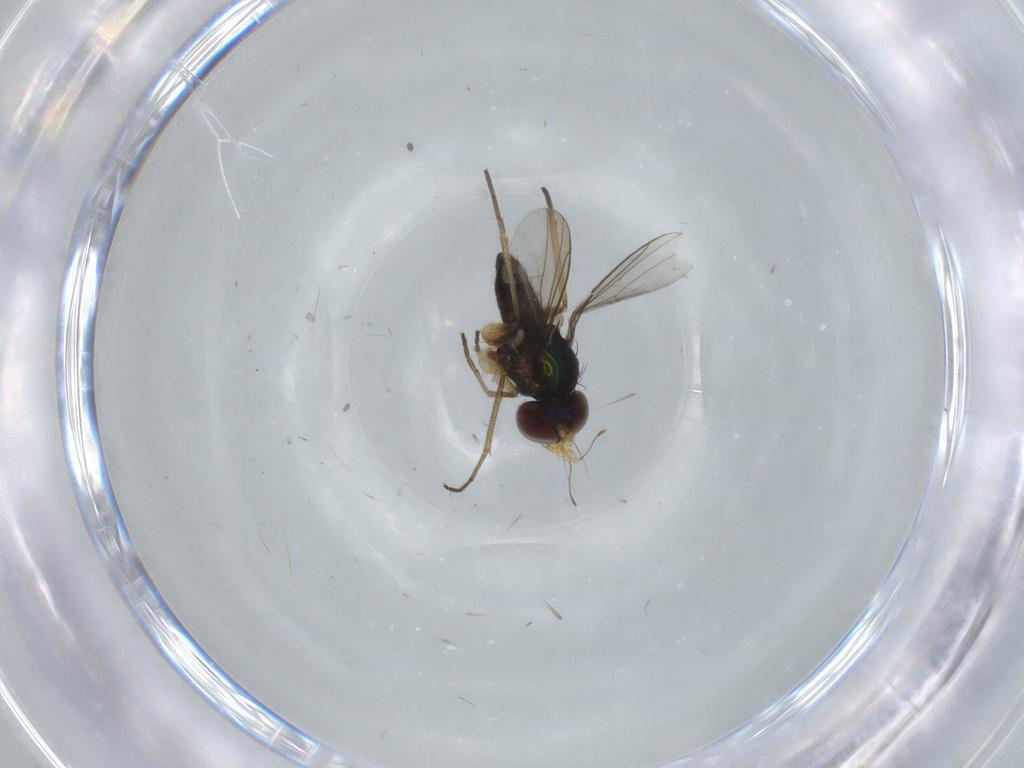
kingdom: Animalia
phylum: Arthropoda
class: Insecta
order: Diptera
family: Dolichopodidae
